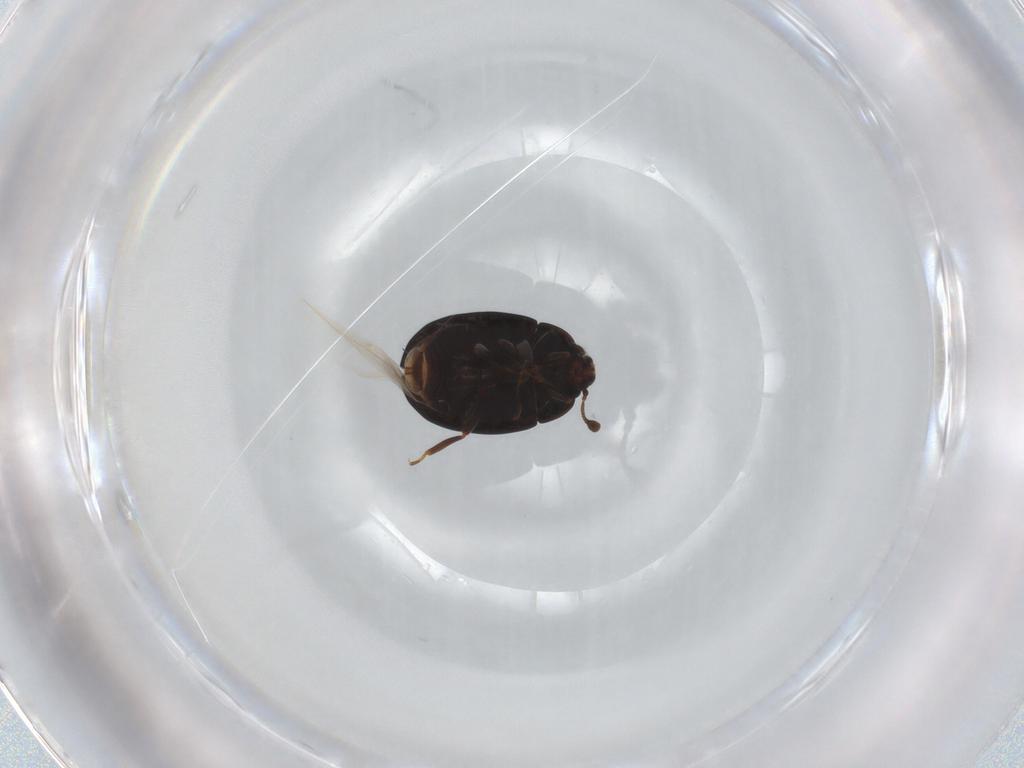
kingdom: Animalia
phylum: Arthropoda
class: Insecta
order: Coleoptera
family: Discolomatidae
